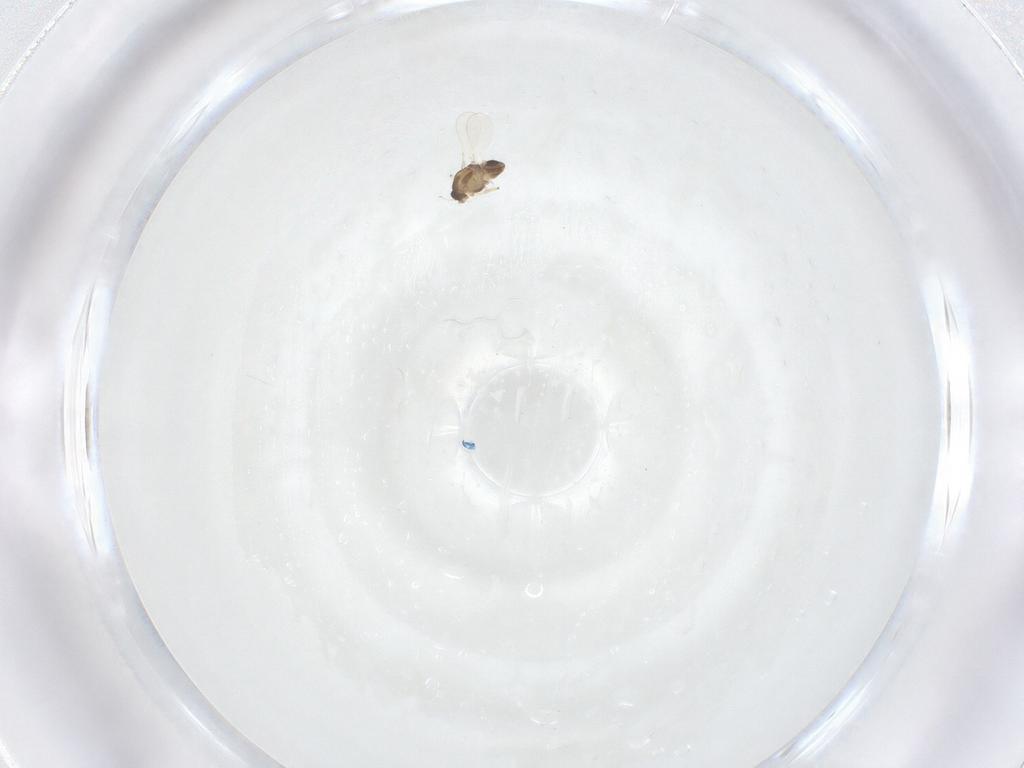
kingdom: Animalia
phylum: Arthropoda
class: Insecta
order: Diptera
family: Chironomidae
